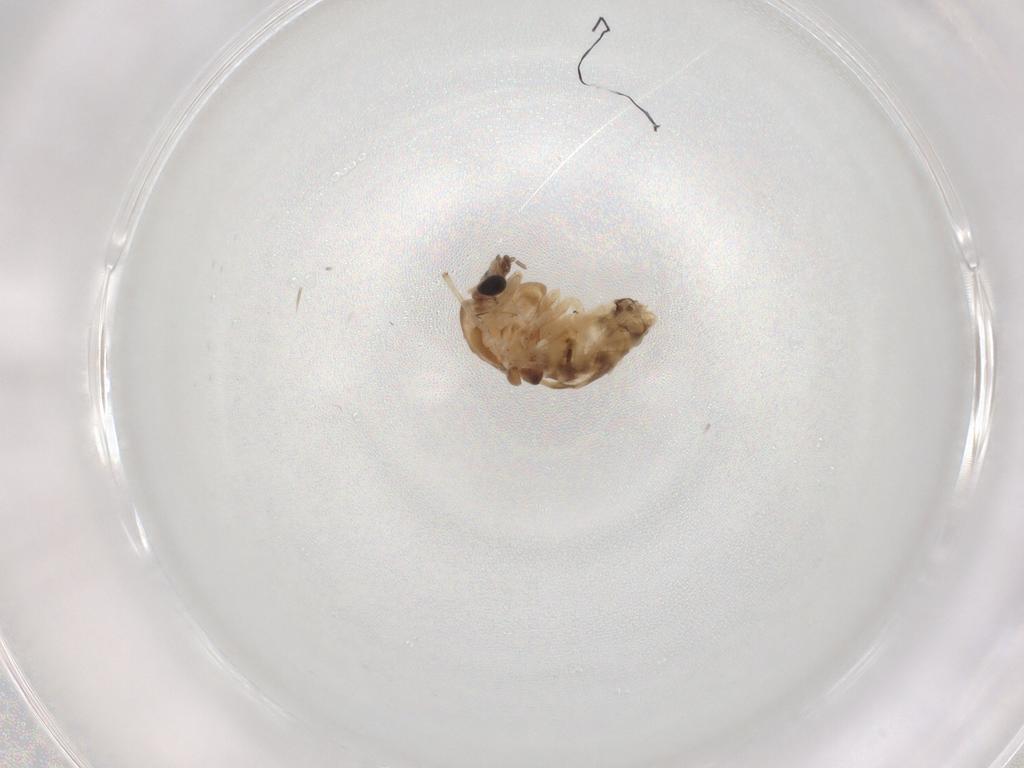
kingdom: Animalia
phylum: Arthropoda
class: Insecta
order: Diptera
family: Chironomidae
